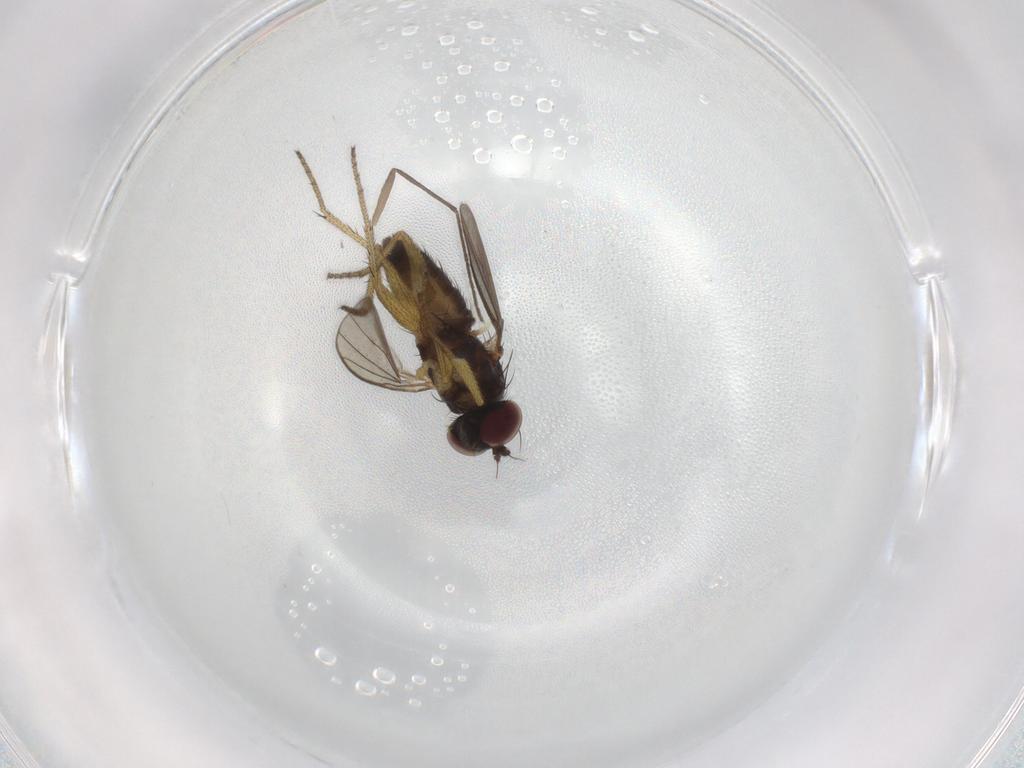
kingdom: Animalia
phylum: Arthropoda
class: Insecta
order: Diptera
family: Dolichopodidae
